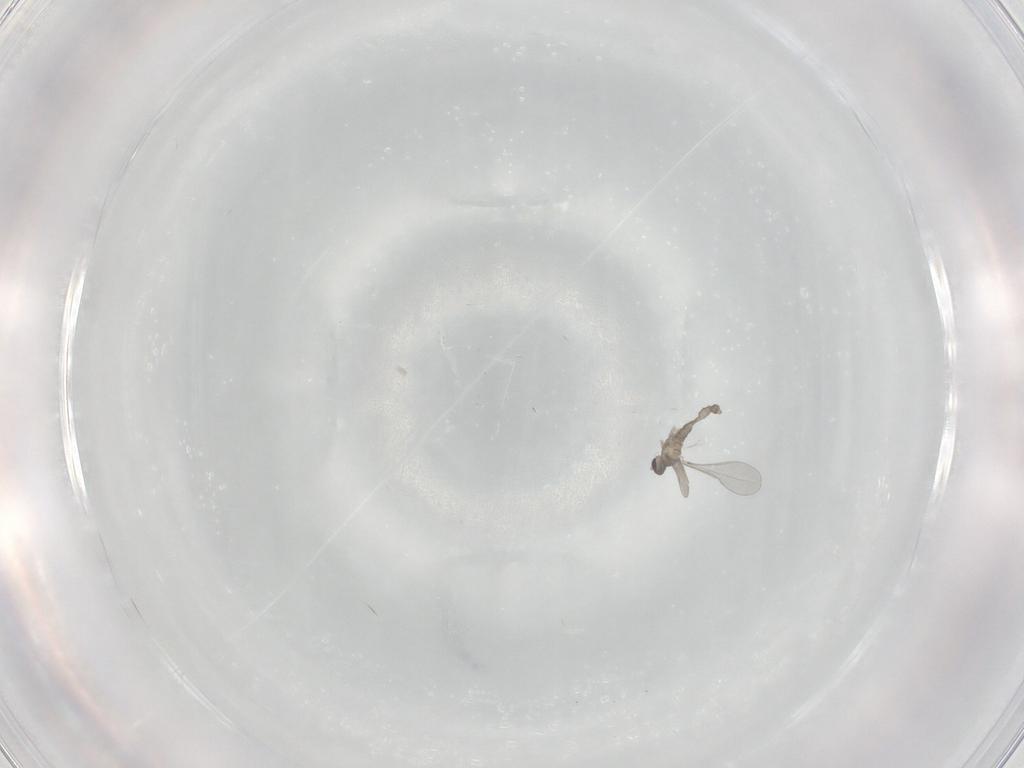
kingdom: Animalia
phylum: Arthropoda
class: Insecta
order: Diptera
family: Cecidomyiidae
